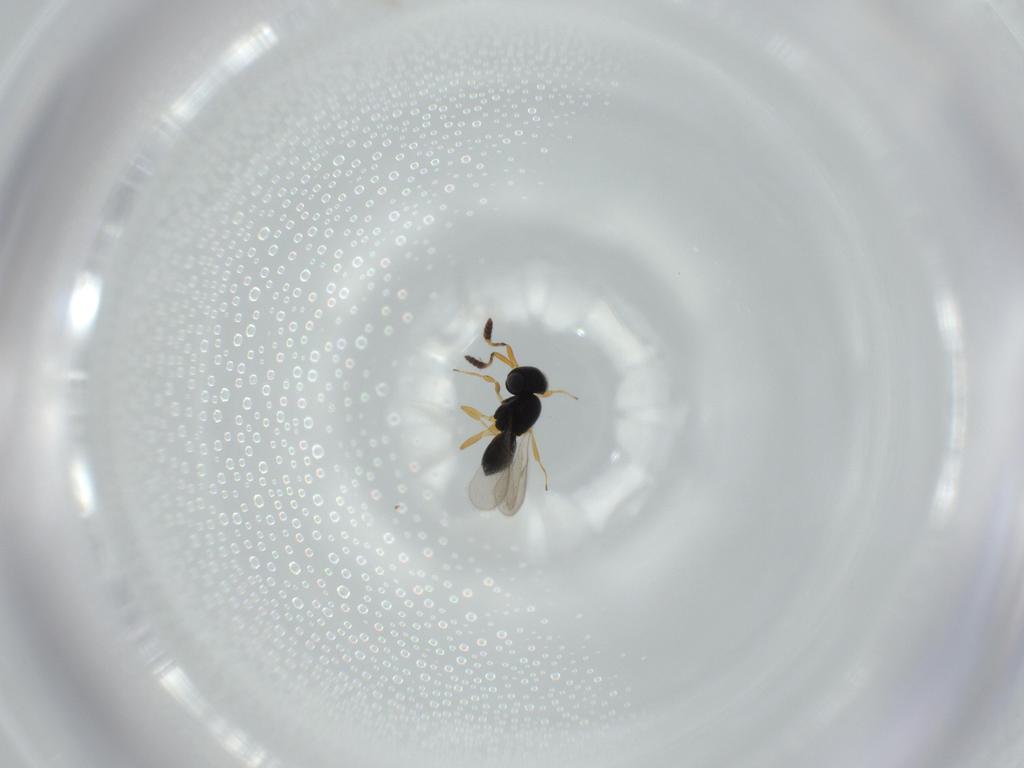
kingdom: Animalia
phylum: Arthropoda
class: Insecta
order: Hymenoptera
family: Scelionidae
